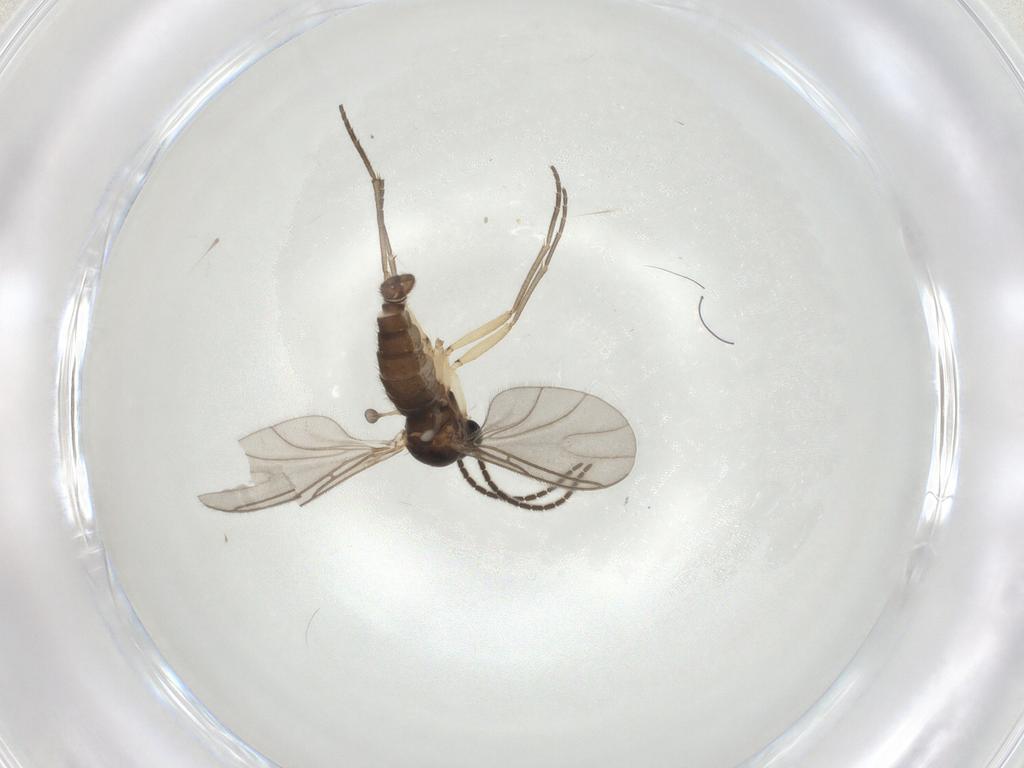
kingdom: Animalia
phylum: Arthropoda
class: Insecta
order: Diptera
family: Sciaridae
